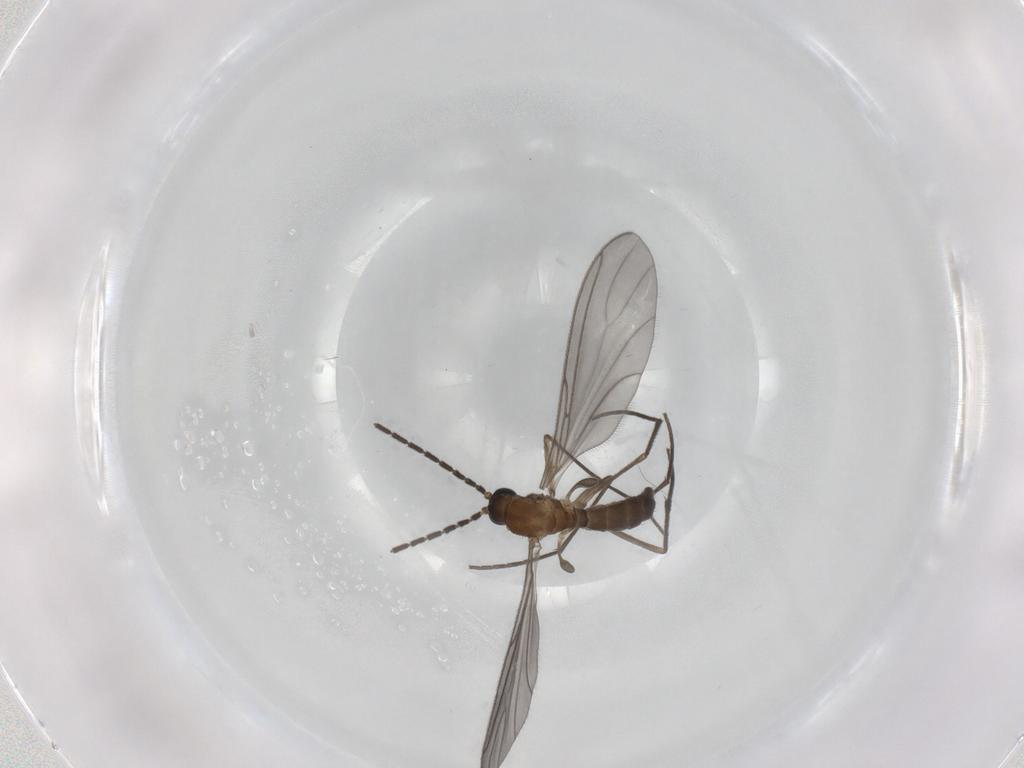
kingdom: Animalia
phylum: Arthropoda
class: Insecta
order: Diptera
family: Sciaridae
